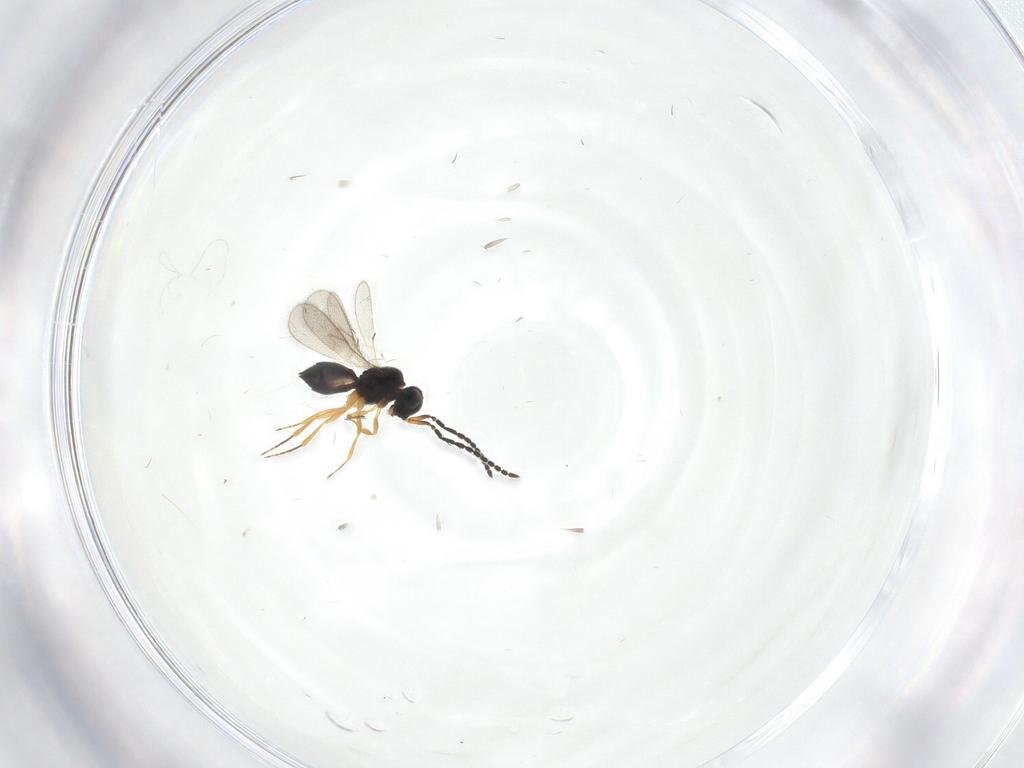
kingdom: Animalia
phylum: Arthropoda
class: Insecta
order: Hymenoptera
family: Scelionidae
